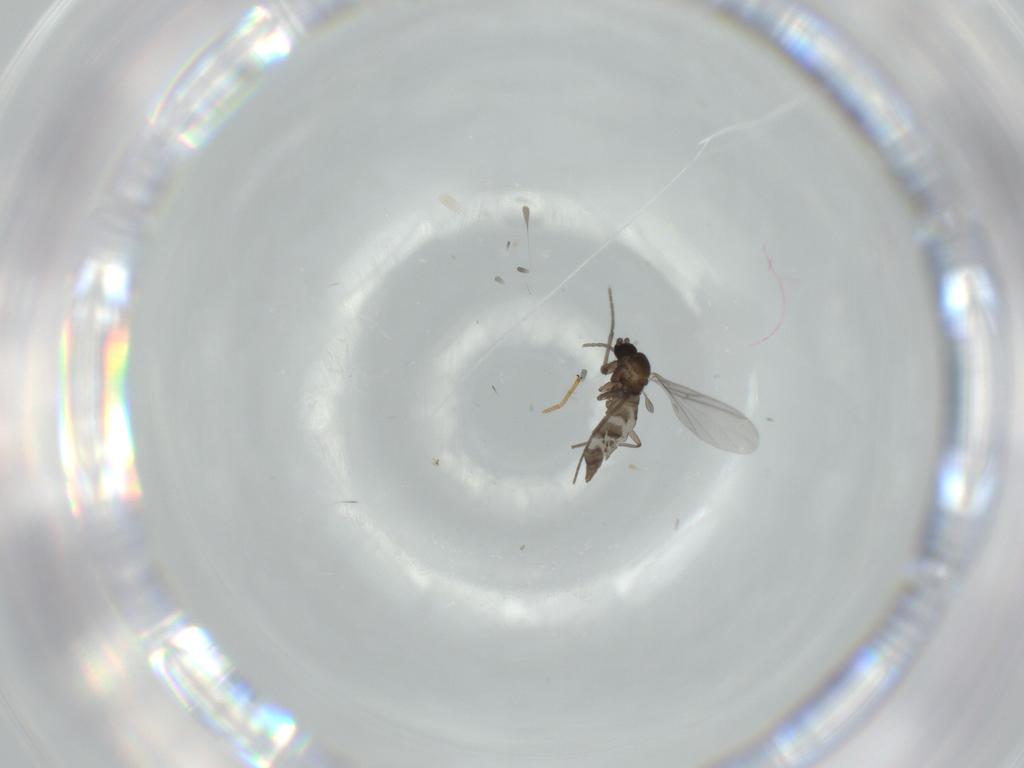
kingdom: Animalia
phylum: Arthropoda
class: Insecta
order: Diptera
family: Sciaridae
